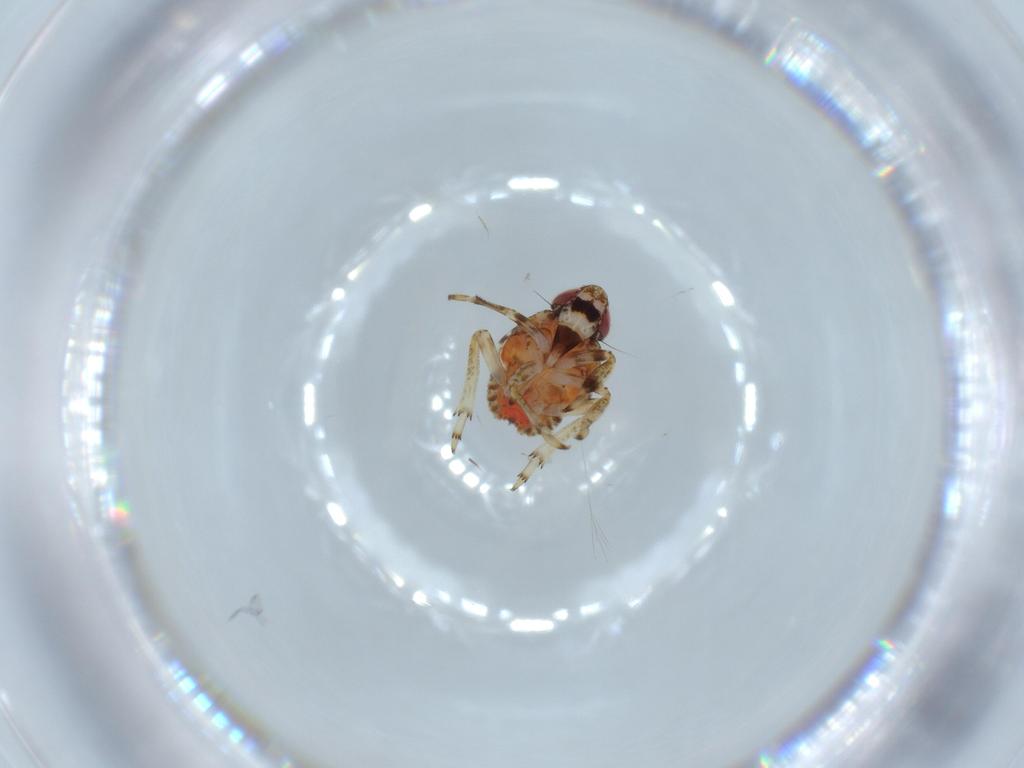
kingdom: Animalia
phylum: Arthropoda
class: Insecta
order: Hemiptera
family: Issidae
